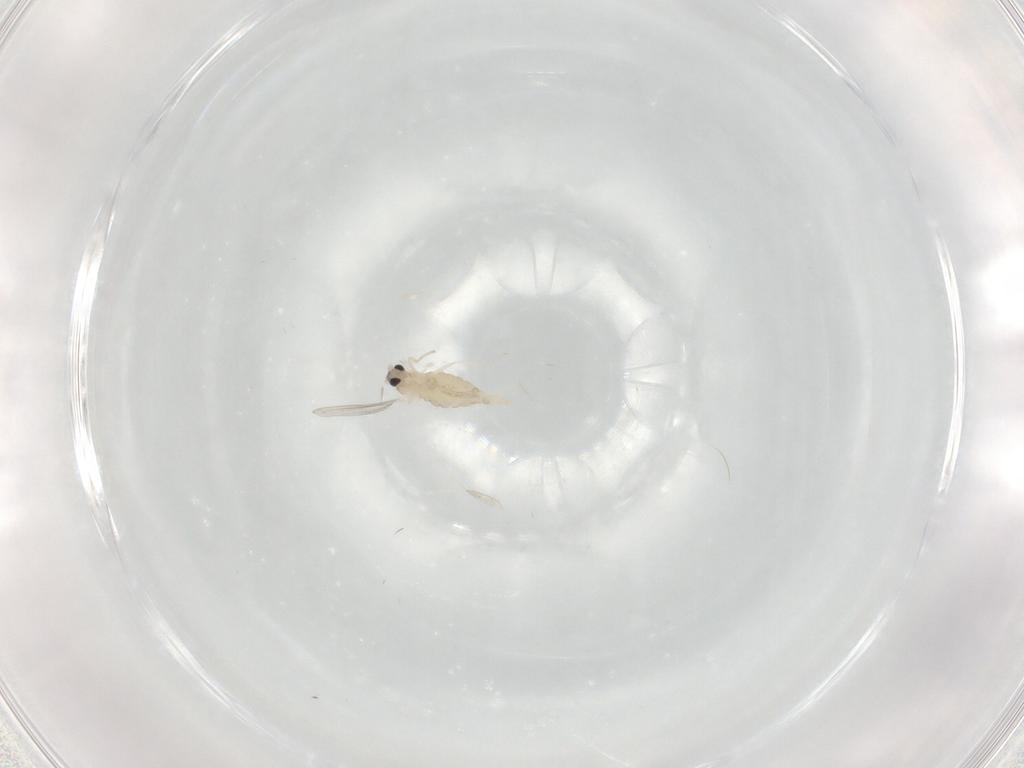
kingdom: Animalia
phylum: Arthropoda
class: Insecta
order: Diptera
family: Cecidomyiidae
